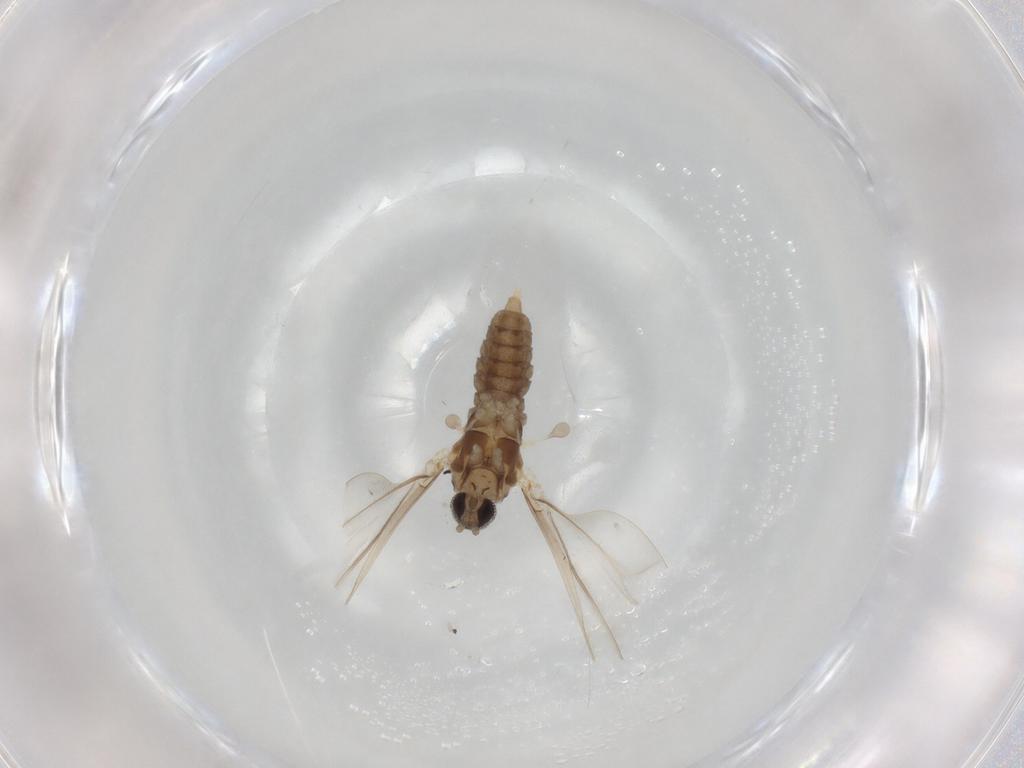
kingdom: Animalia
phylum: Arthropoda
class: Insecta
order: Diptera
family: Cecidomyiidae
